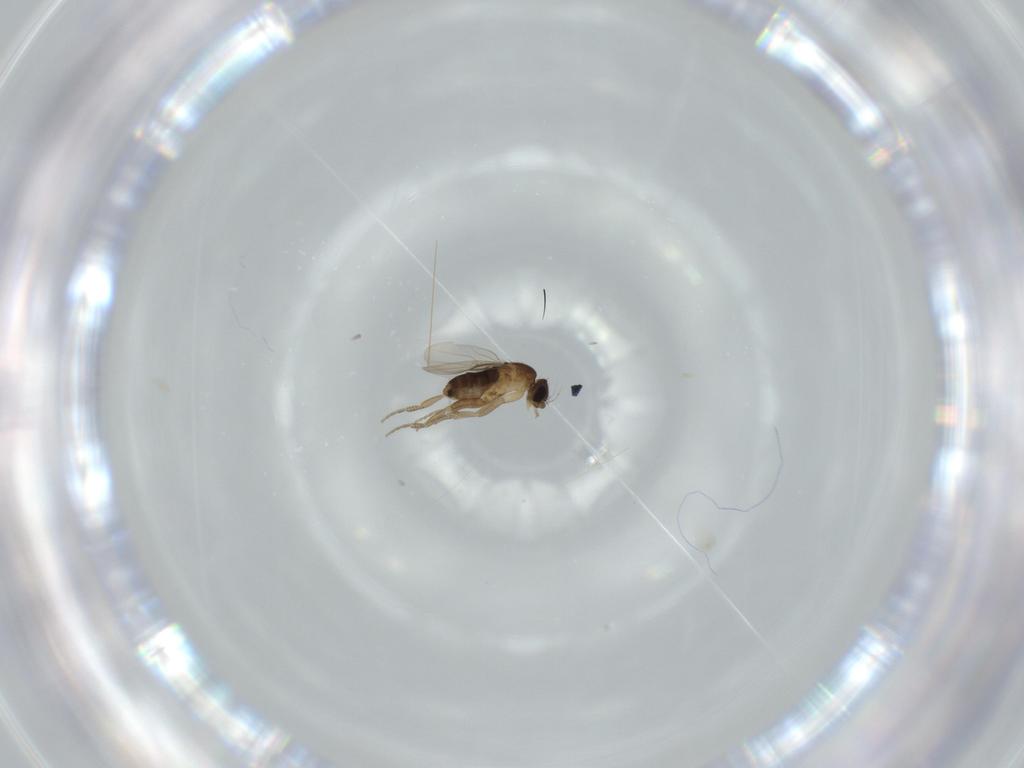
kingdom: Animalia
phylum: Arthropoda
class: Insecta
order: Diptera
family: Phoridae
